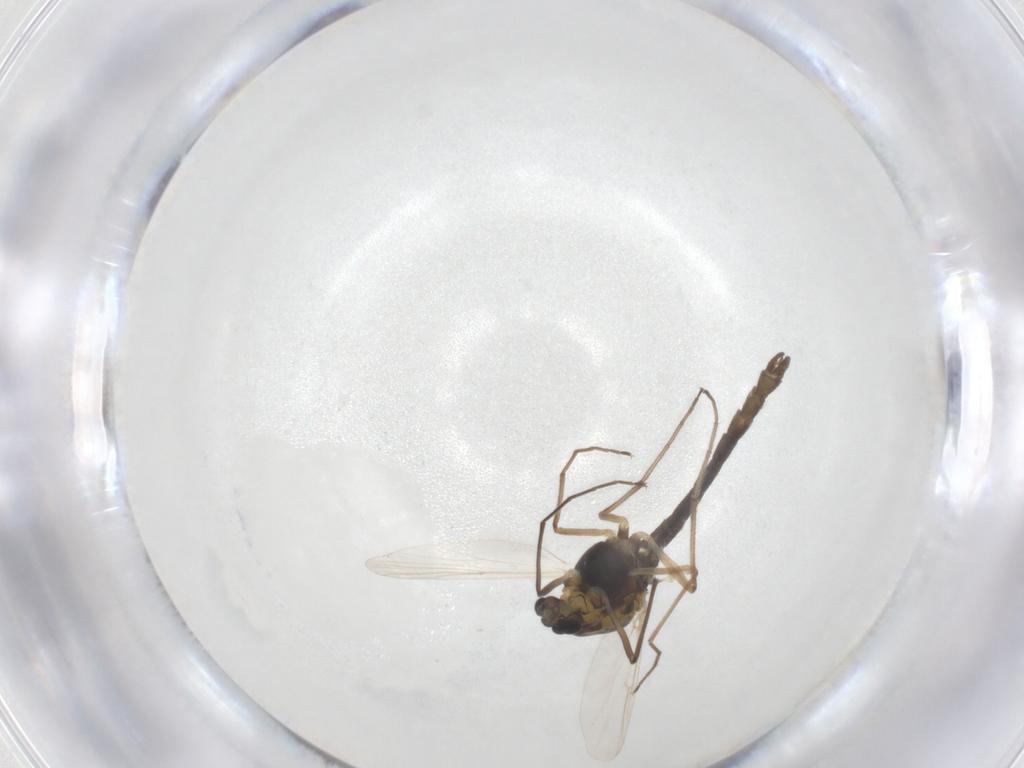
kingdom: Animalia
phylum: Arthropoda
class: Insecta
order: Diptera
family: Chironomidae
